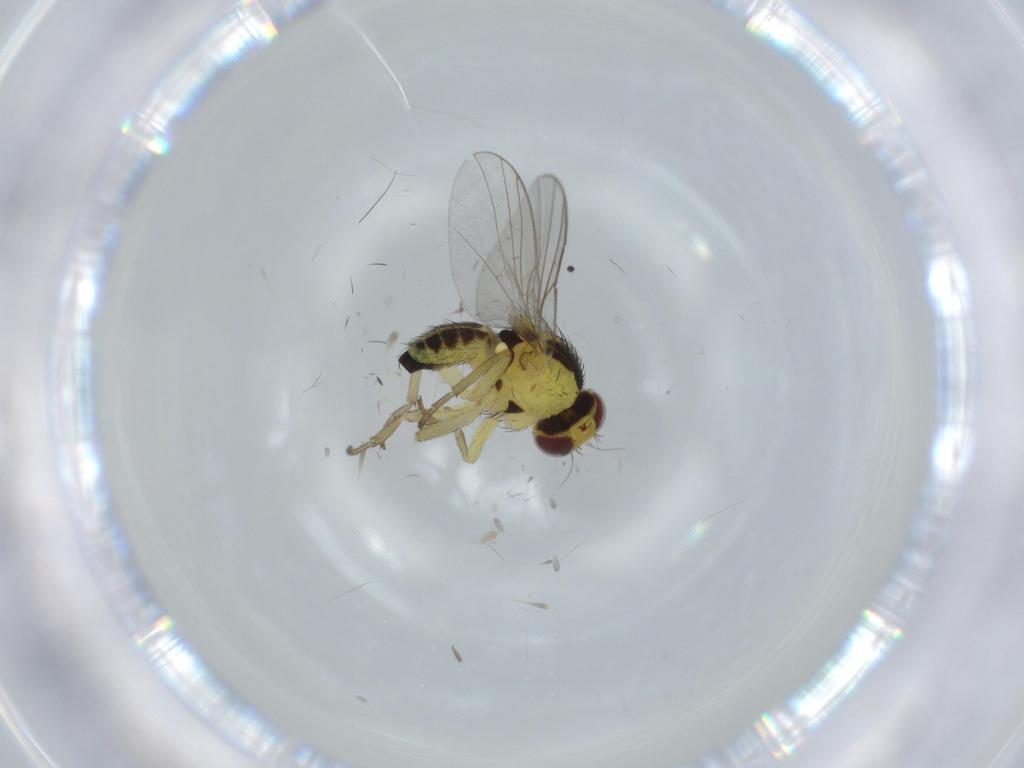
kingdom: Animalia
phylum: Arthropoda
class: Insecta
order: Diptera
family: Agromyzidae
